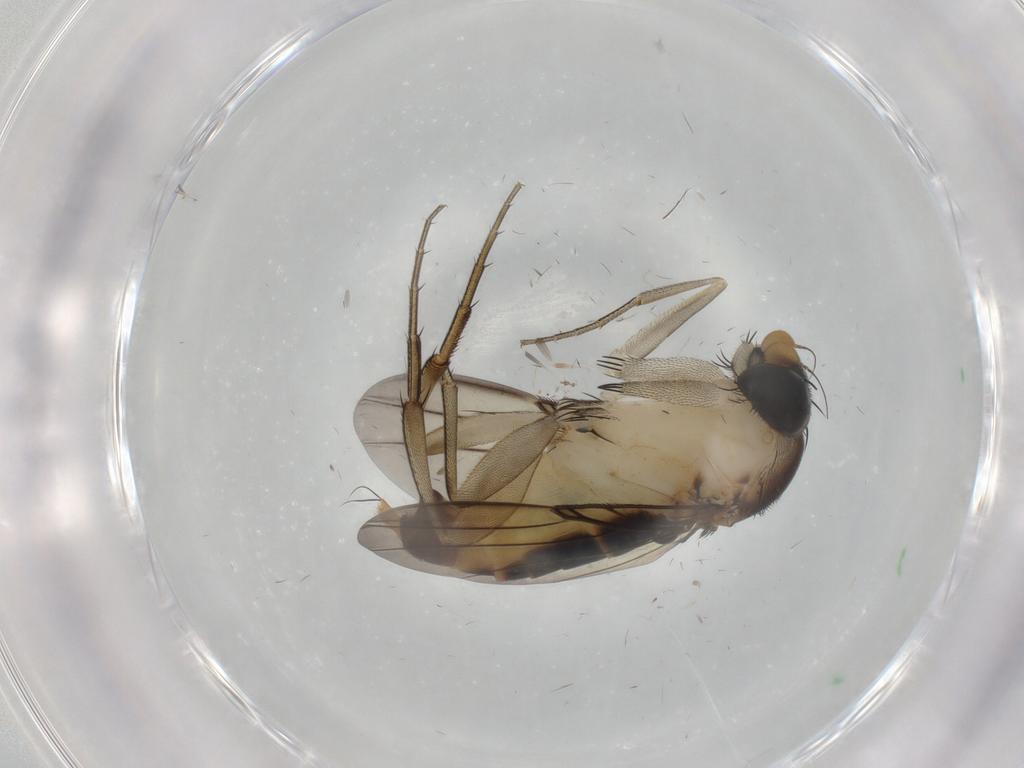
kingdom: Animalia
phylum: Arthropoda
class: Insecta
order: Diptera
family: Phoridae
